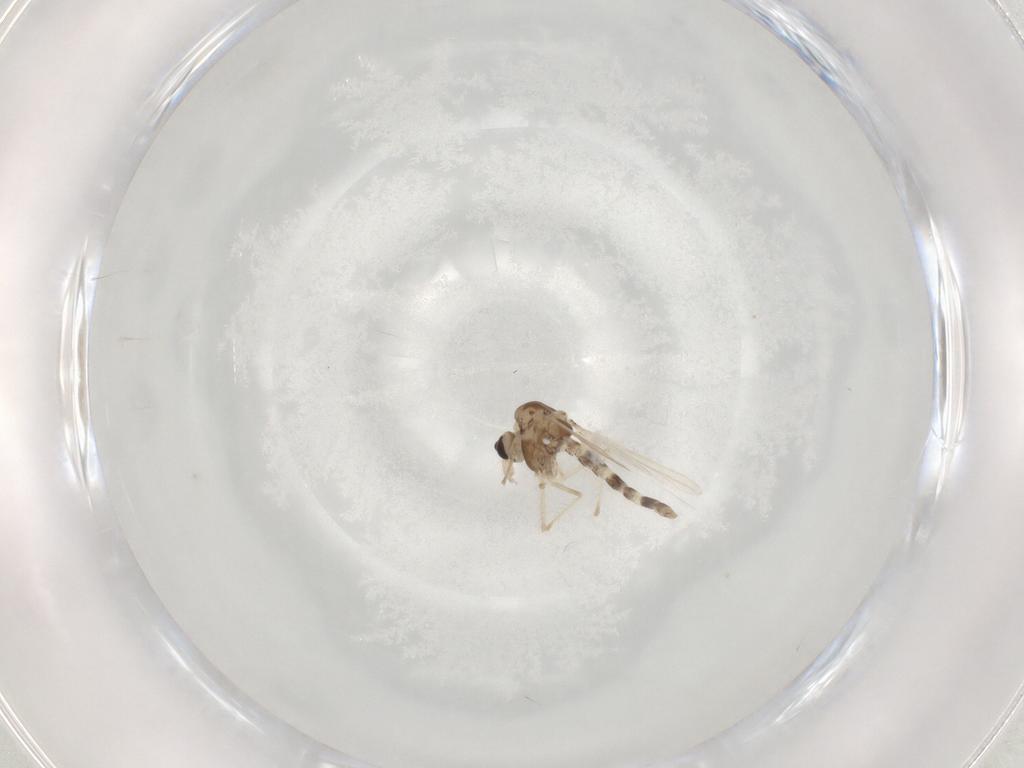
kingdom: Animalia
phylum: Arthropoda
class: Insecta
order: Diptera
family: Chironomidae
